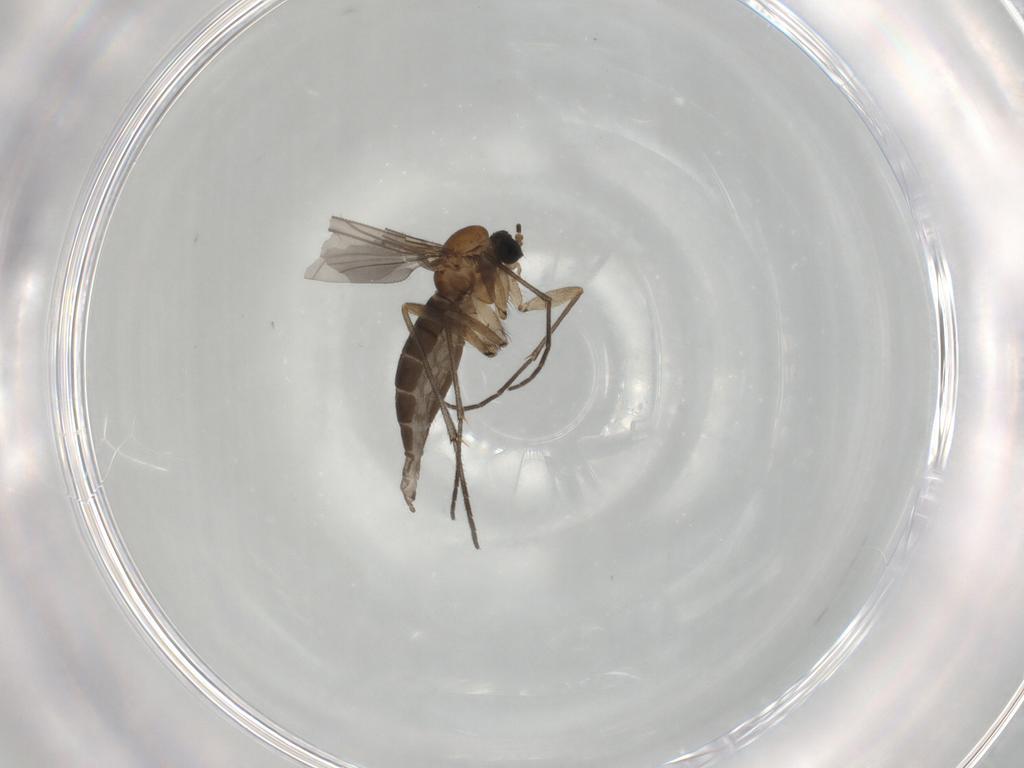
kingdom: Animalia
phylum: Arthropoda
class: Insecta
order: Diptera
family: Sciaridae
